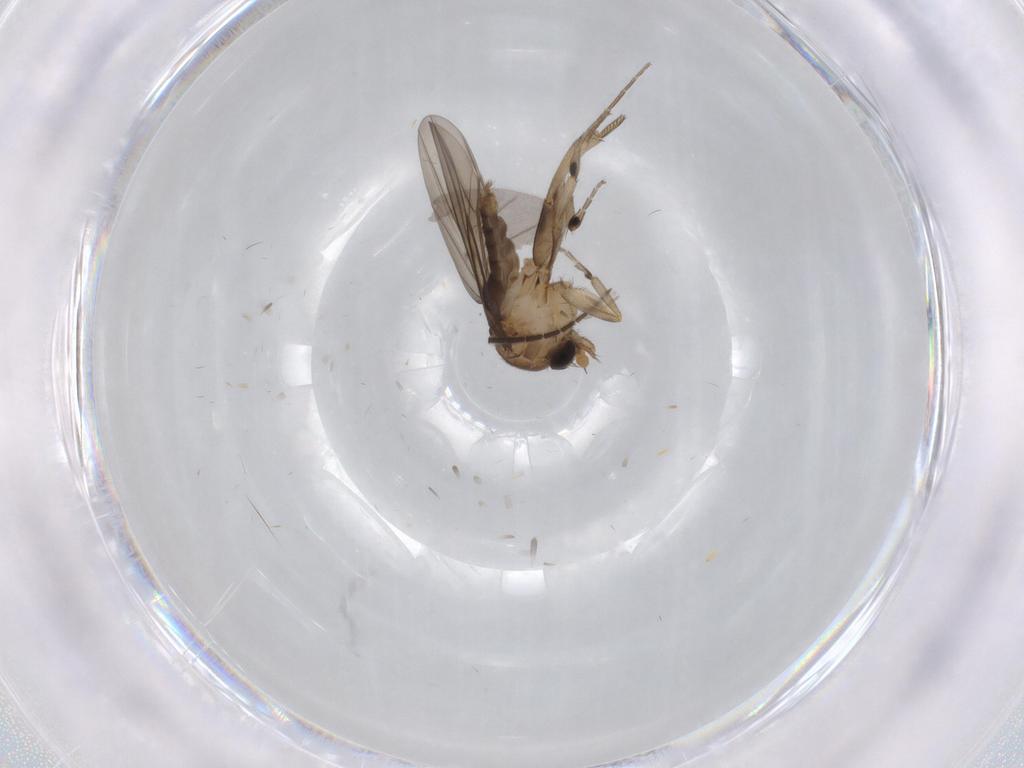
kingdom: Animalia
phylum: Arthropoda
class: Insecta
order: Diptera
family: Sciaridae
